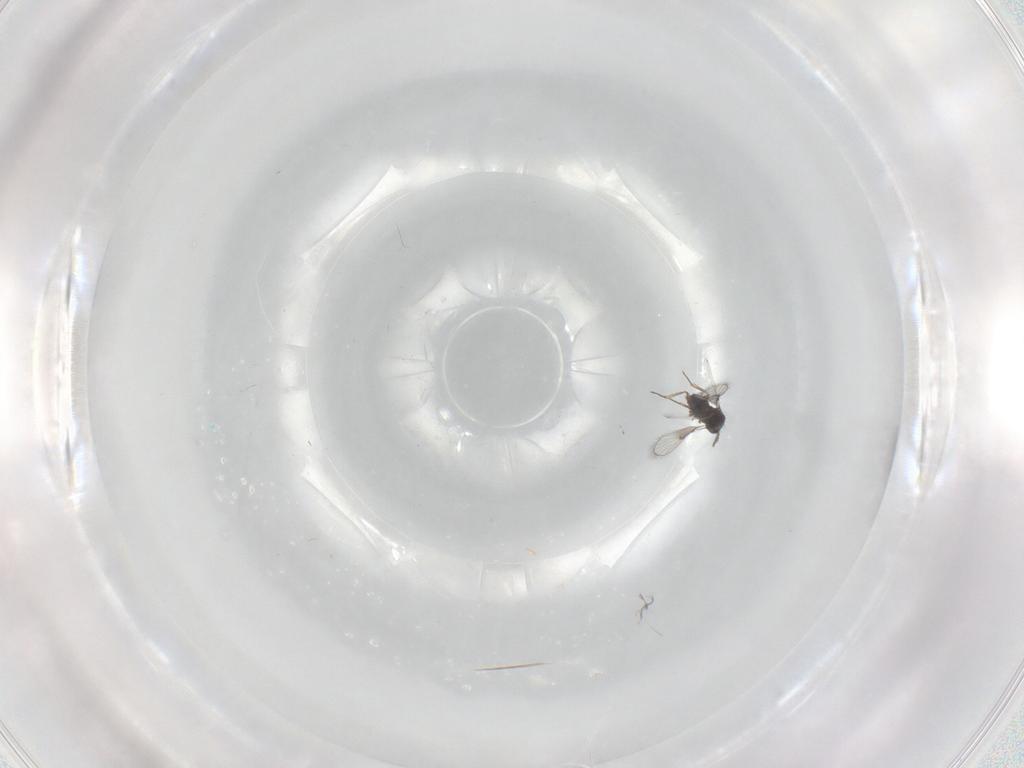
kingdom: Animalia
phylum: Arthropoda
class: Insecta
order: Hymenoptera
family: Trichogrammatidae
